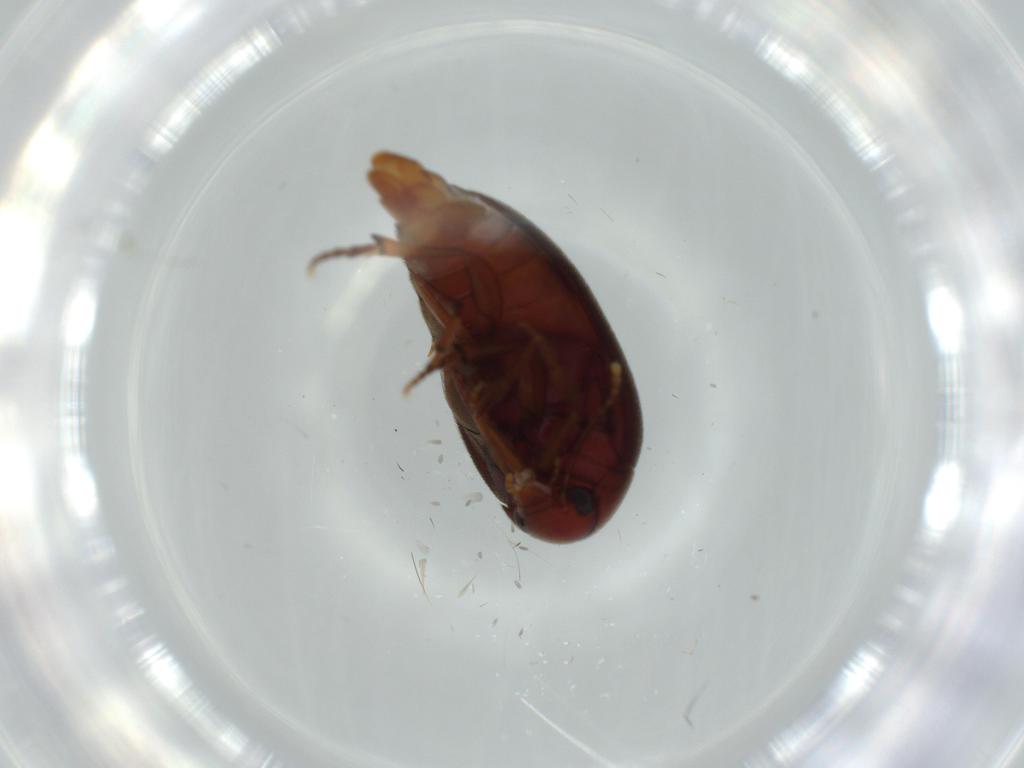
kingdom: Animalia
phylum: Arthropoda
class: Insecta
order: Coleoptera
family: Eucinetidae
